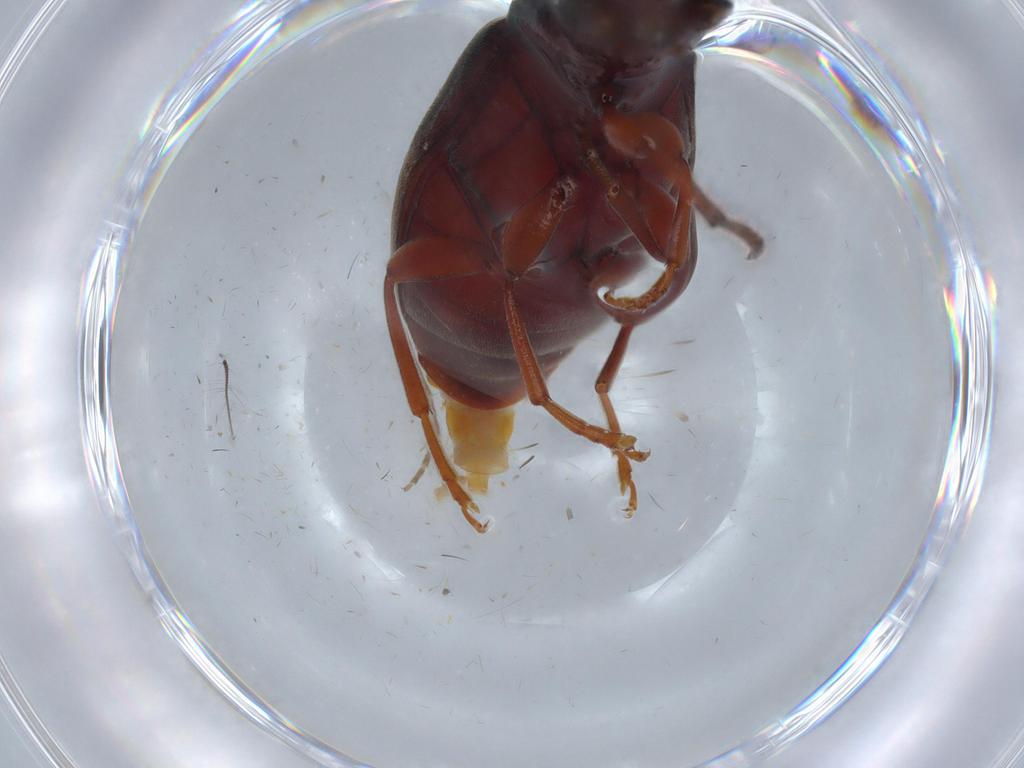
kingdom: Animalia
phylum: Arthropoda
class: Insecta
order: Coleoptera
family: Mycteridae
